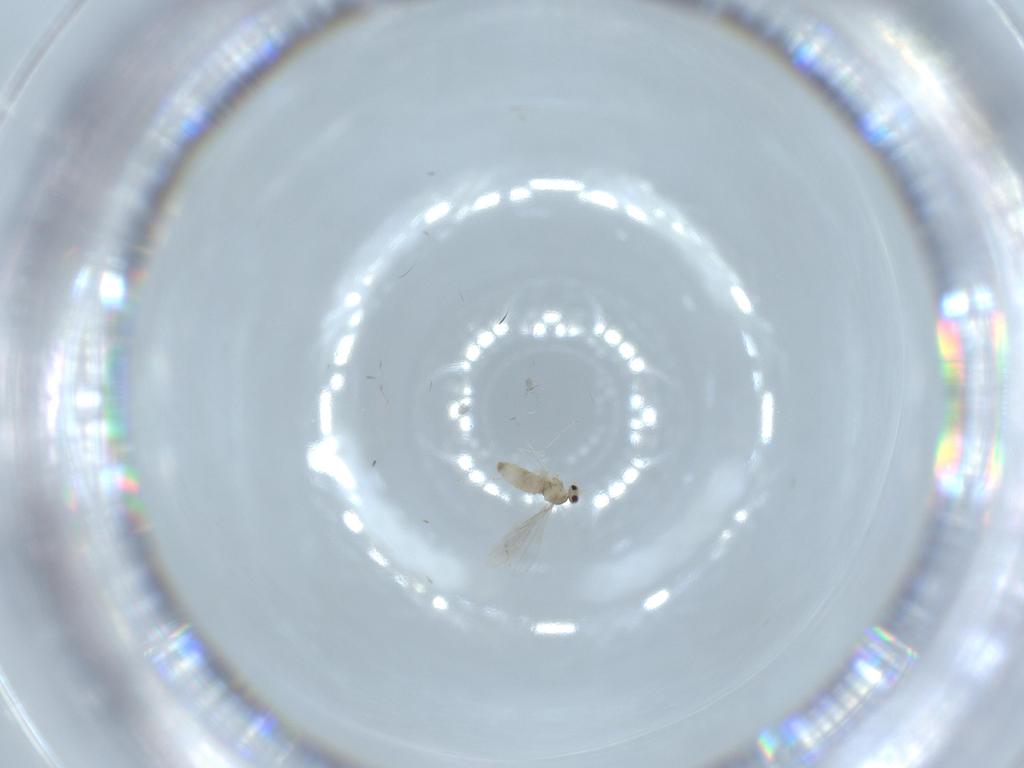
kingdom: Animalia
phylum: Arthropoda
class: Insecta
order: Diptera
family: Cecidomyiidae
